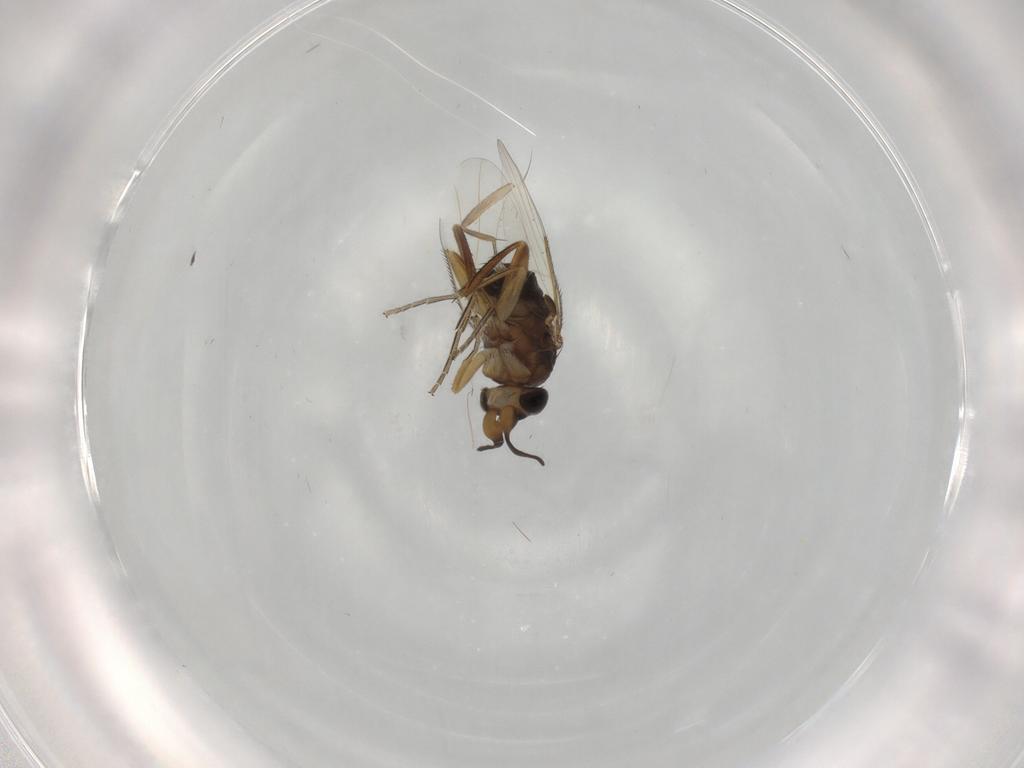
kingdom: Animalia
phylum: Arthropoda
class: Insecta
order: Diptera
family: Phoridae
